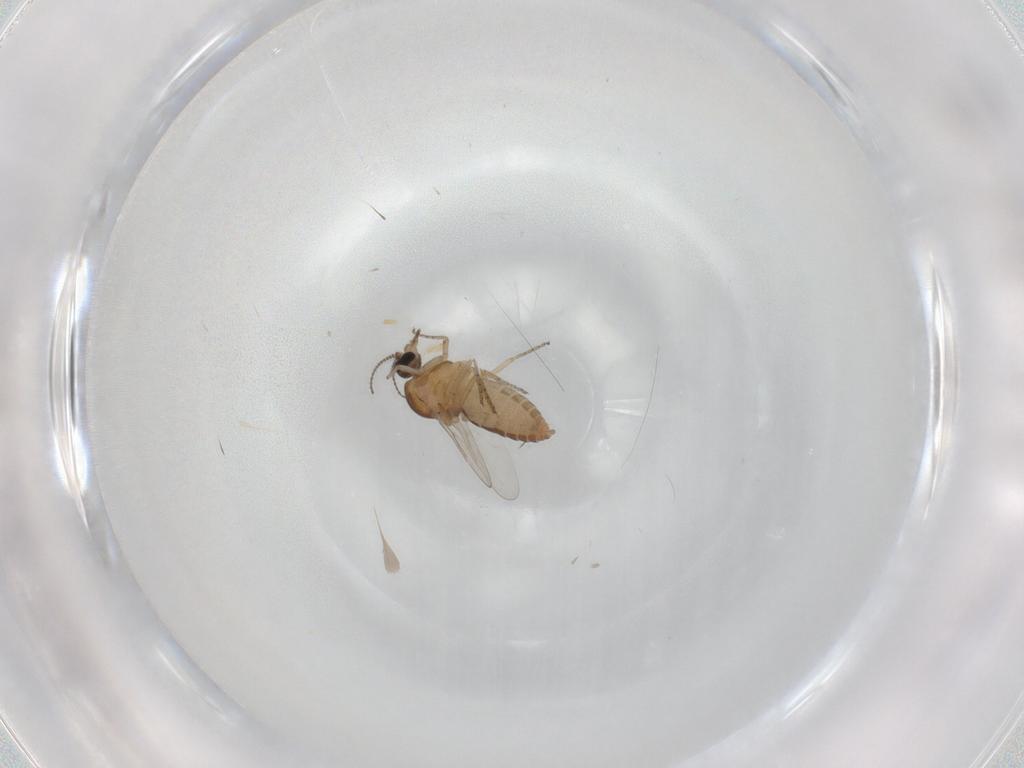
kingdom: Animalia
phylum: Arthropoda
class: Insecta
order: Diptera
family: Ceratopogonidae
